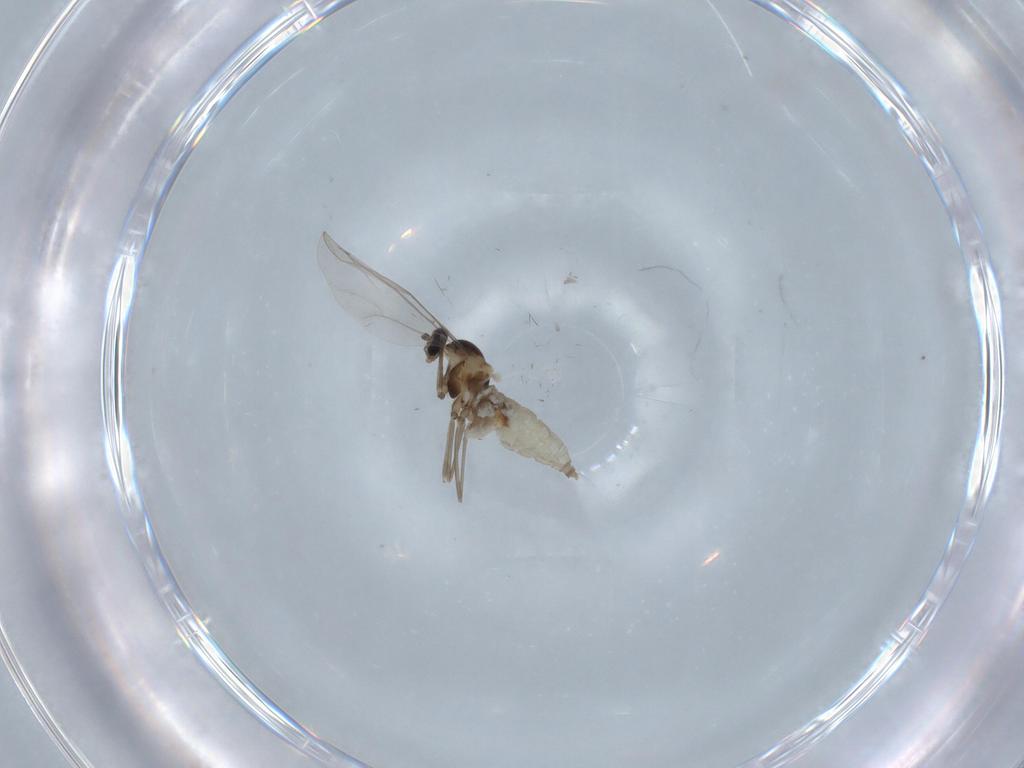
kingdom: Animalia
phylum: Arthropoda
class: Insecta
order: Diptera
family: Cecidomyiidae
